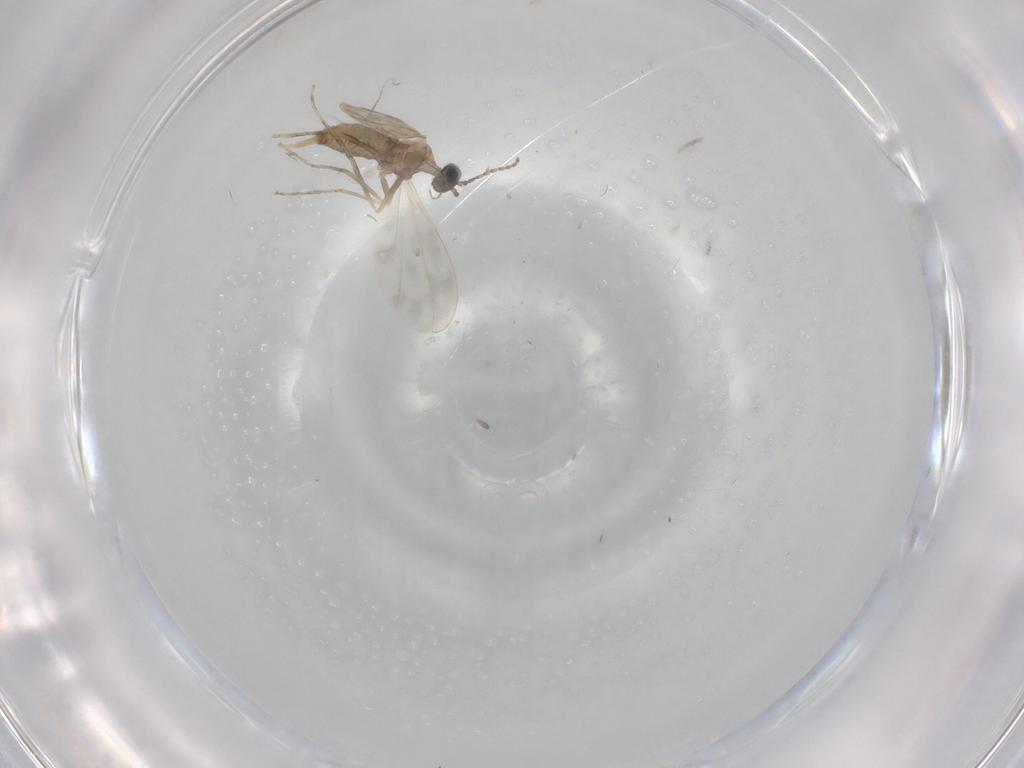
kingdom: Animalia
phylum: Arthropoda
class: Insecta
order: Diptera
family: Cecidomyiidae
